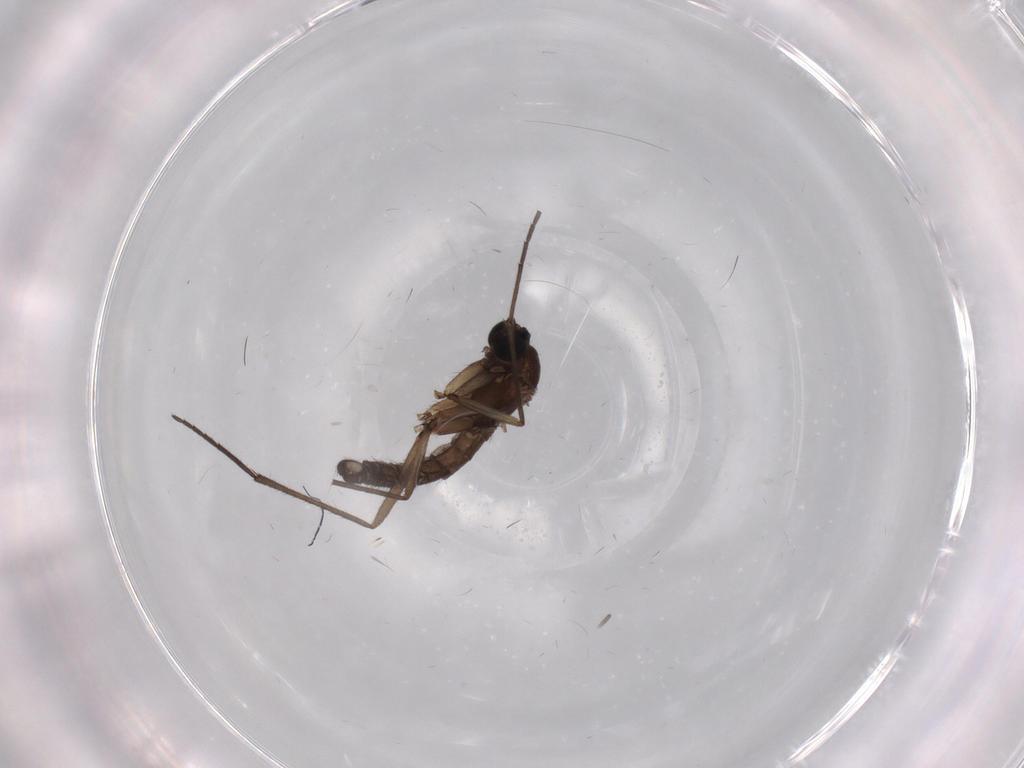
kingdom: Animalia
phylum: Arthropoda
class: Insecta
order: Diptera
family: Sciaridae
